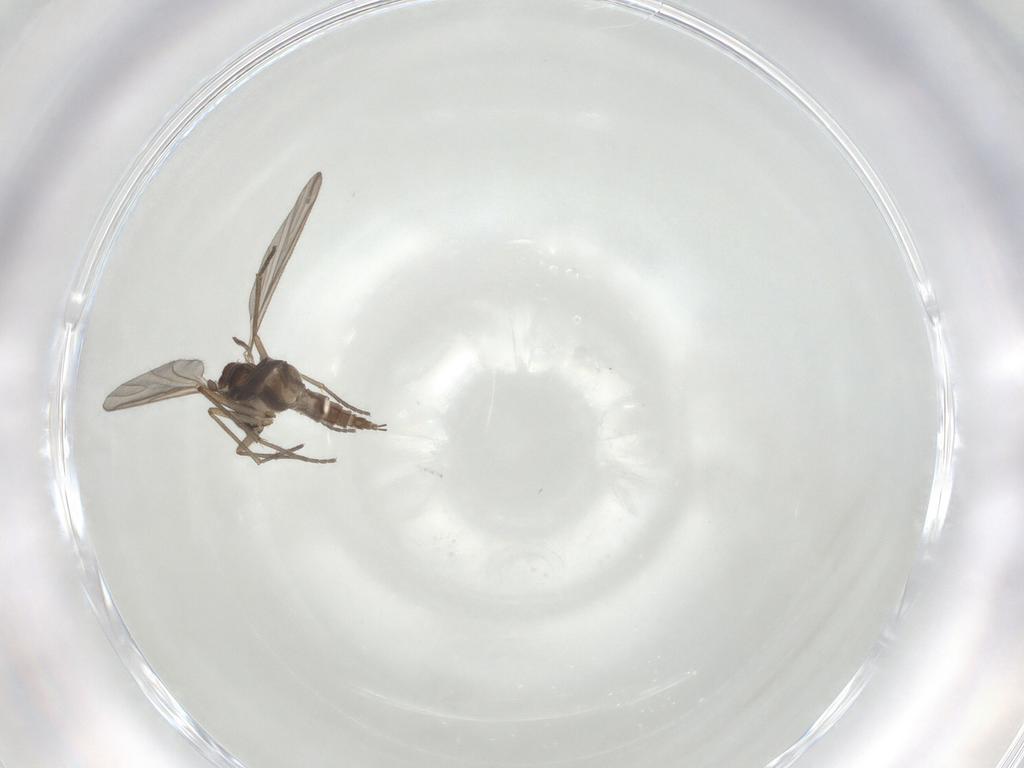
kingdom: Animalia
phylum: Arthropoda
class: Insecta
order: Diptera
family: Sciaridae
